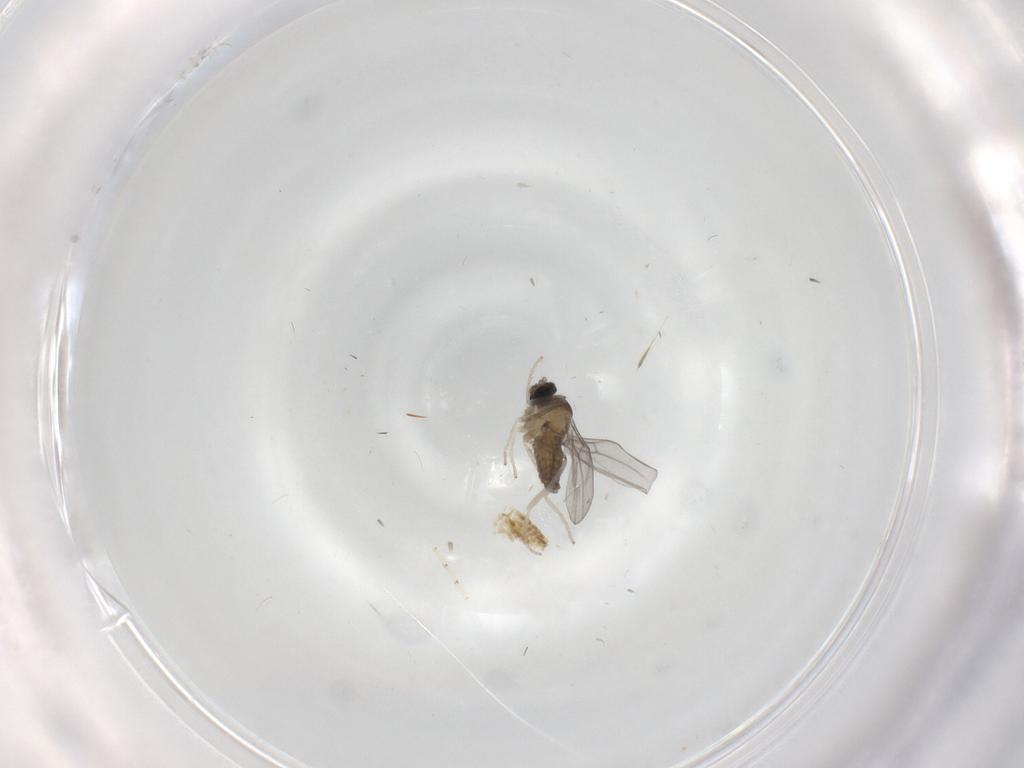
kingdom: Animalia
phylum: Arthropoda
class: Insecta
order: Diptera
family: Cecidomyiidae
